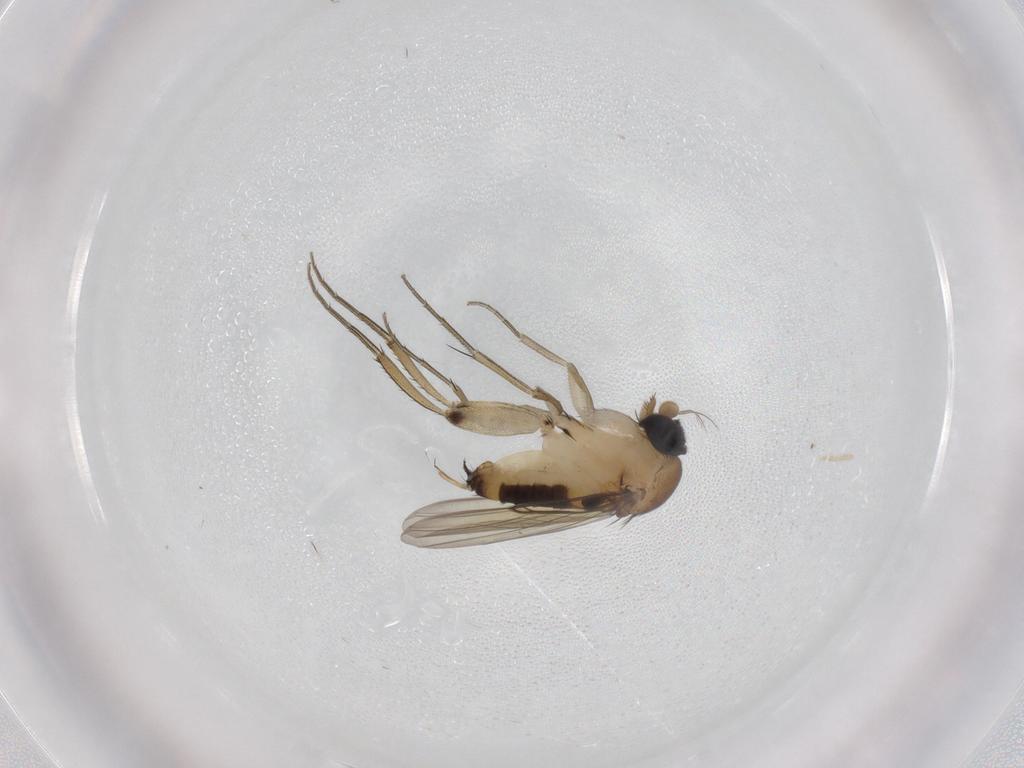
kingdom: Animalia
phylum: Arthropoda
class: Insecta
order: Diptera
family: Phoridae
